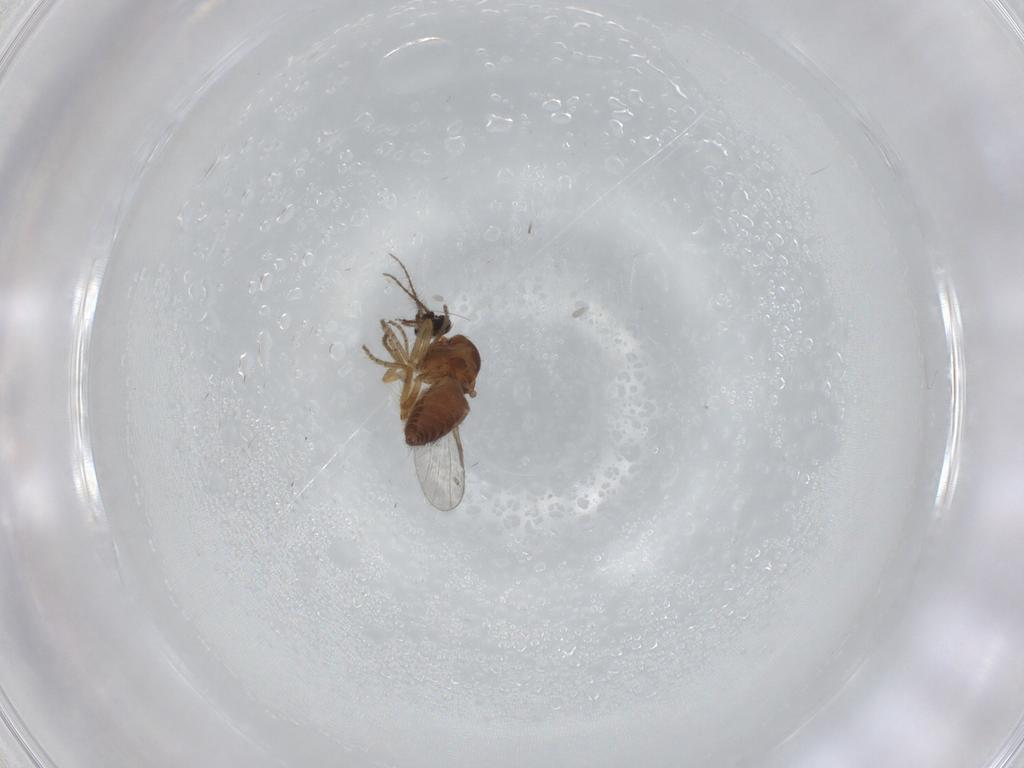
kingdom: Animalia
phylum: Arthropoda
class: Insecta
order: Diptera
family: Ceratopogonidae
